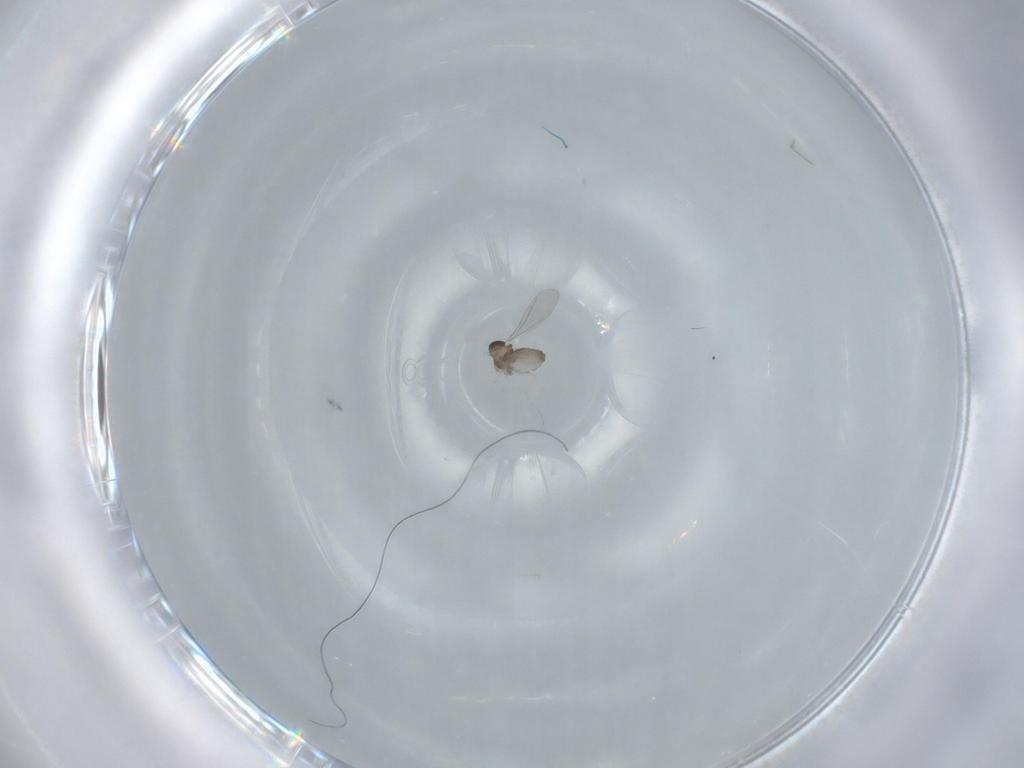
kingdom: Animalia
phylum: Arthropoda
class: Insecta
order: Diptera
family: Cecidomyiidae
